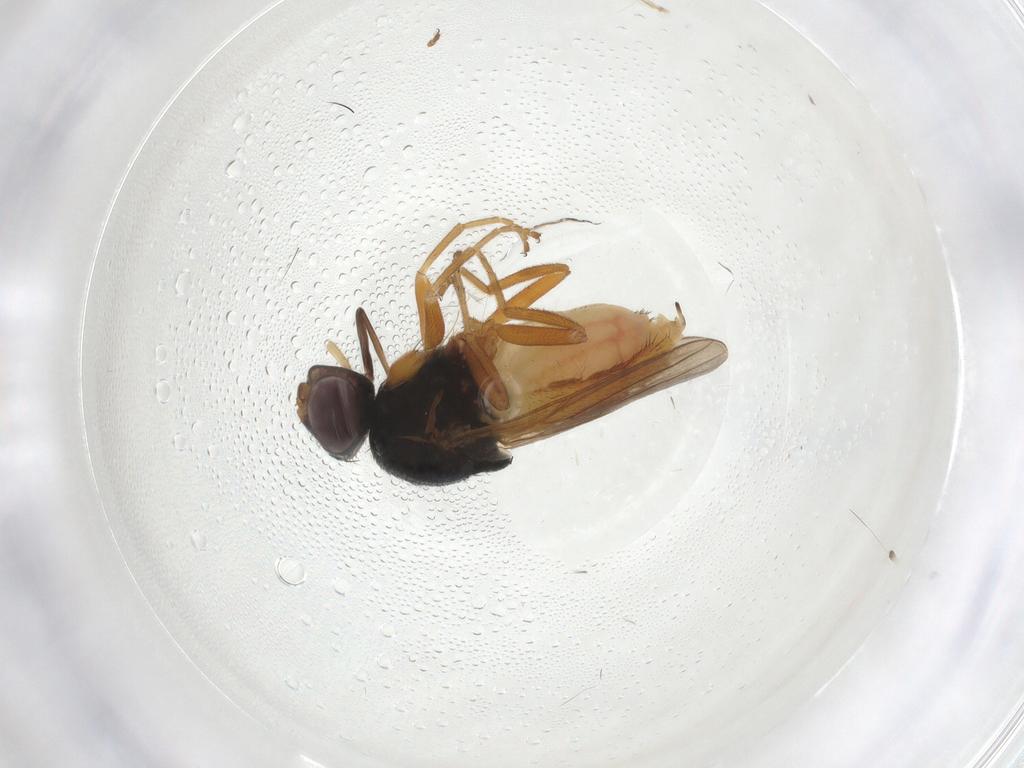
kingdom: Animalia
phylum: Arthropoda
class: Insecta
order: Diptera
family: Chloropidae
